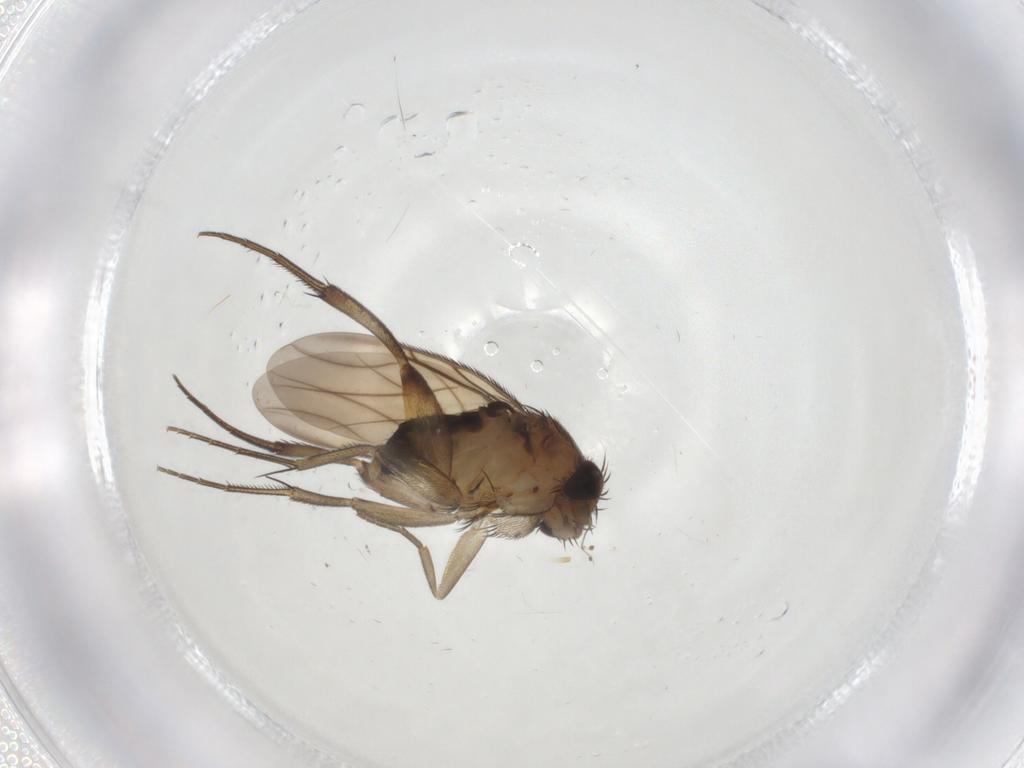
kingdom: Animalia
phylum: Arthropoda
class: Insecta
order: Diptera
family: Phoridae
